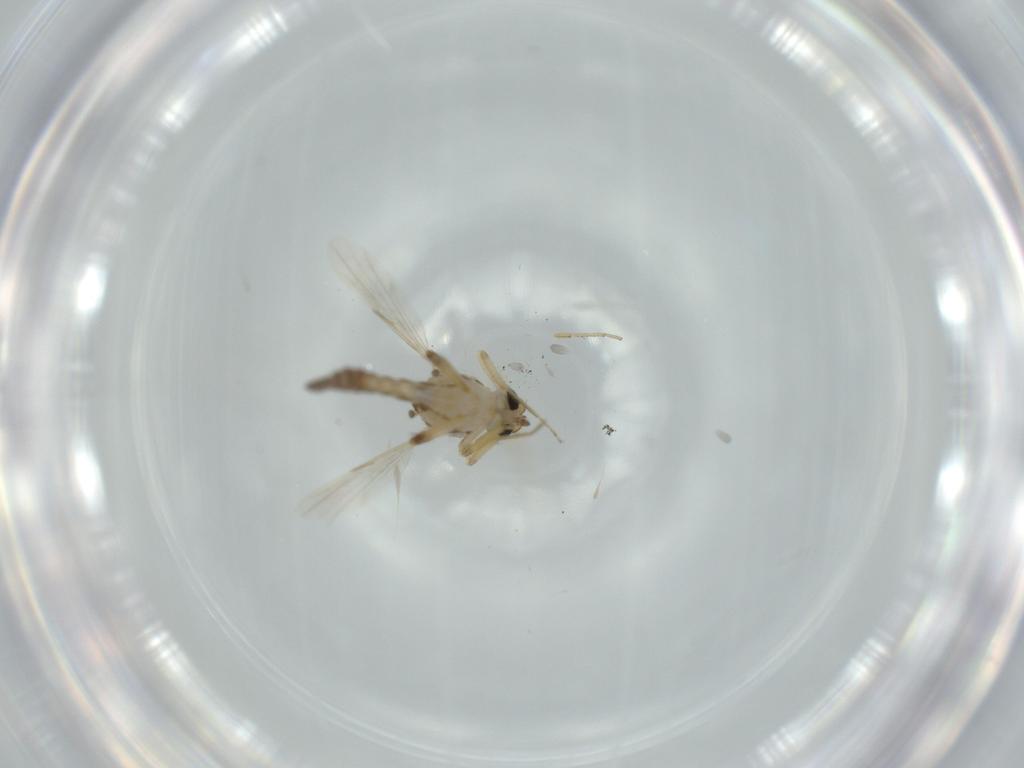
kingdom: Animalia
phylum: Arthropoda
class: Insecta
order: Diptera
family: Ceratopogonidae
